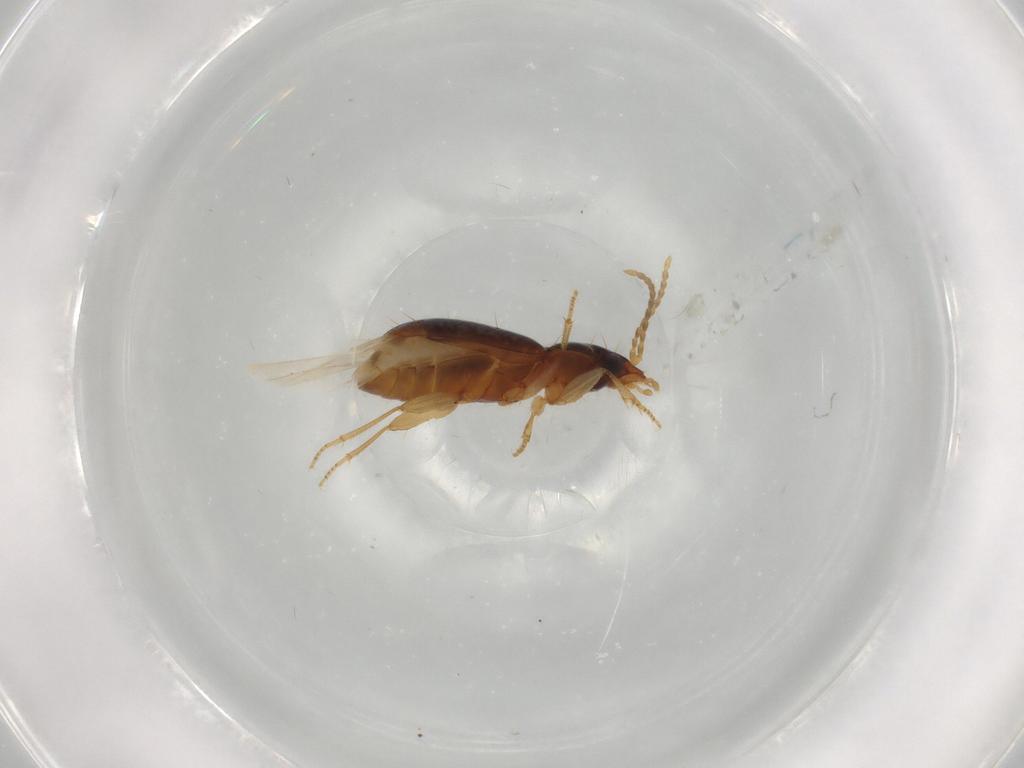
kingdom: Animalia
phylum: Arthropoda
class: Insecta
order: Coleoptera
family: Carabidae
